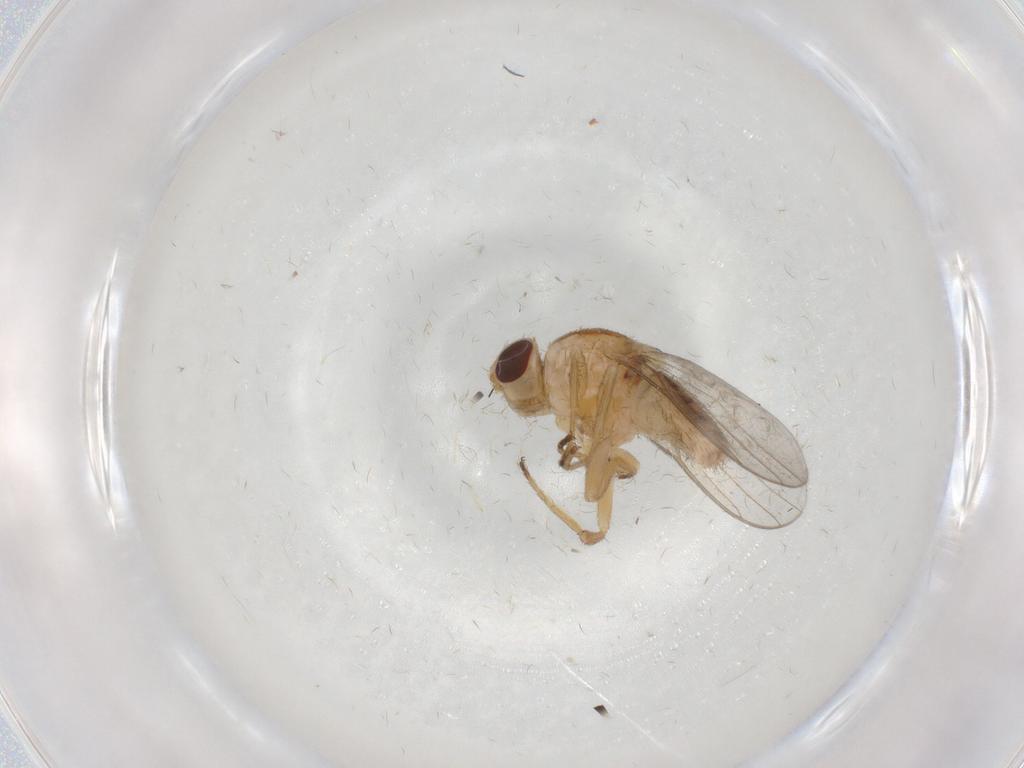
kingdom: Animalia
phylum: Arthropoda
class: Insecta
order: Diptera
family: Chironomidae
